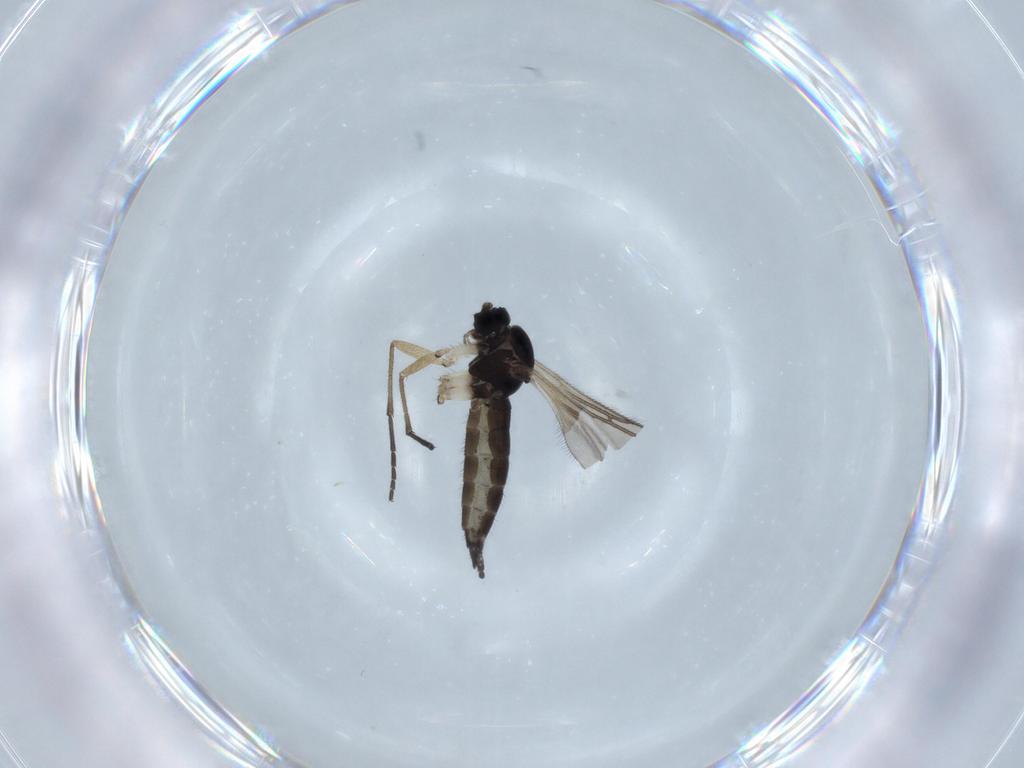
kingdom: Animalia
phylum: Arthropoda
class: Insecta
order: Diptera
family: Sciaridae
